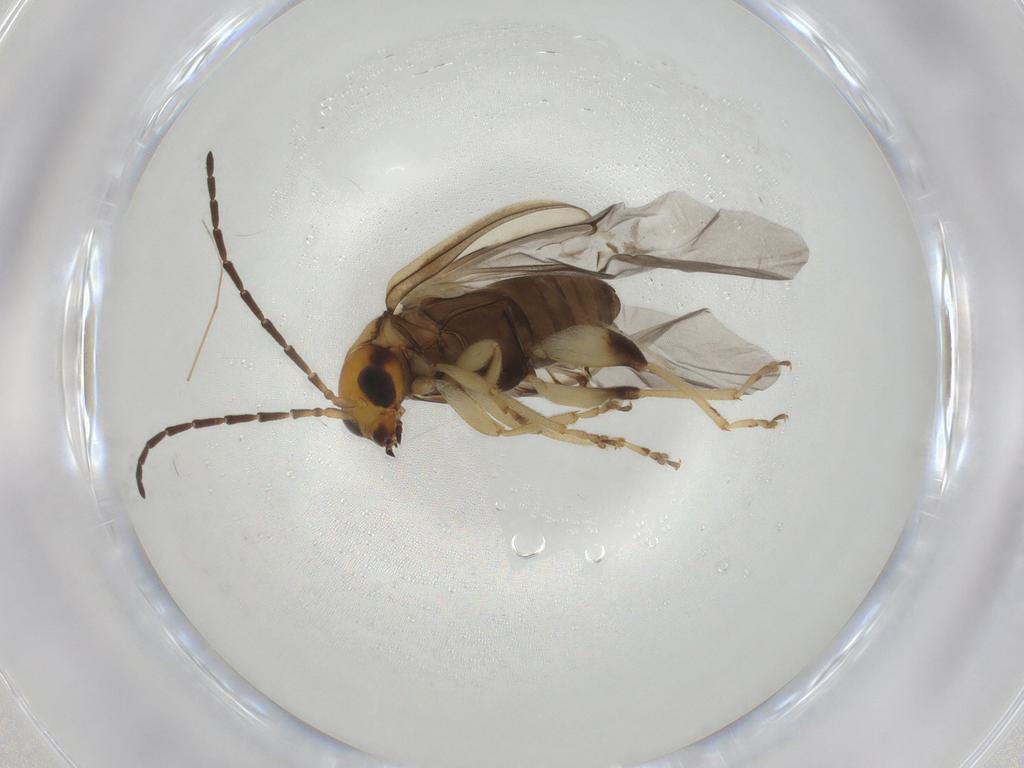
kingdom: Animalia
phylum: Arthropoda
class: Insecta
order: Coleoptera
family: Chrysomelidae
